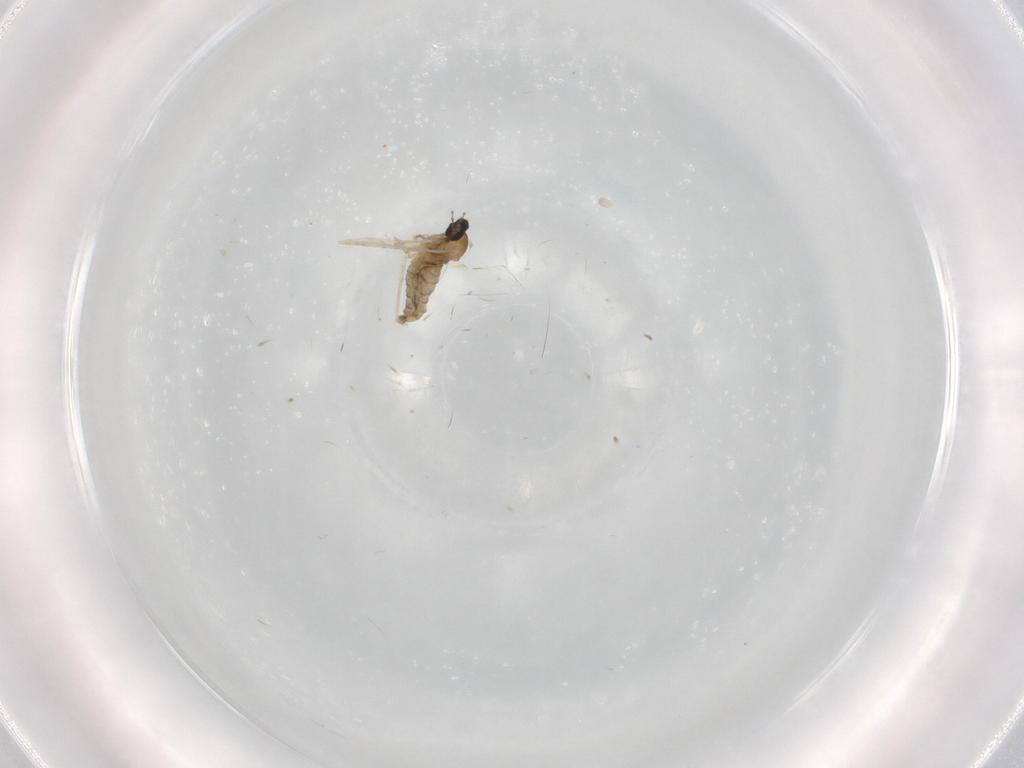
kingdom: Animalia
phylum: Arthropoda
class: Insecta
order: Diptera
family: Cecidomyiidae
